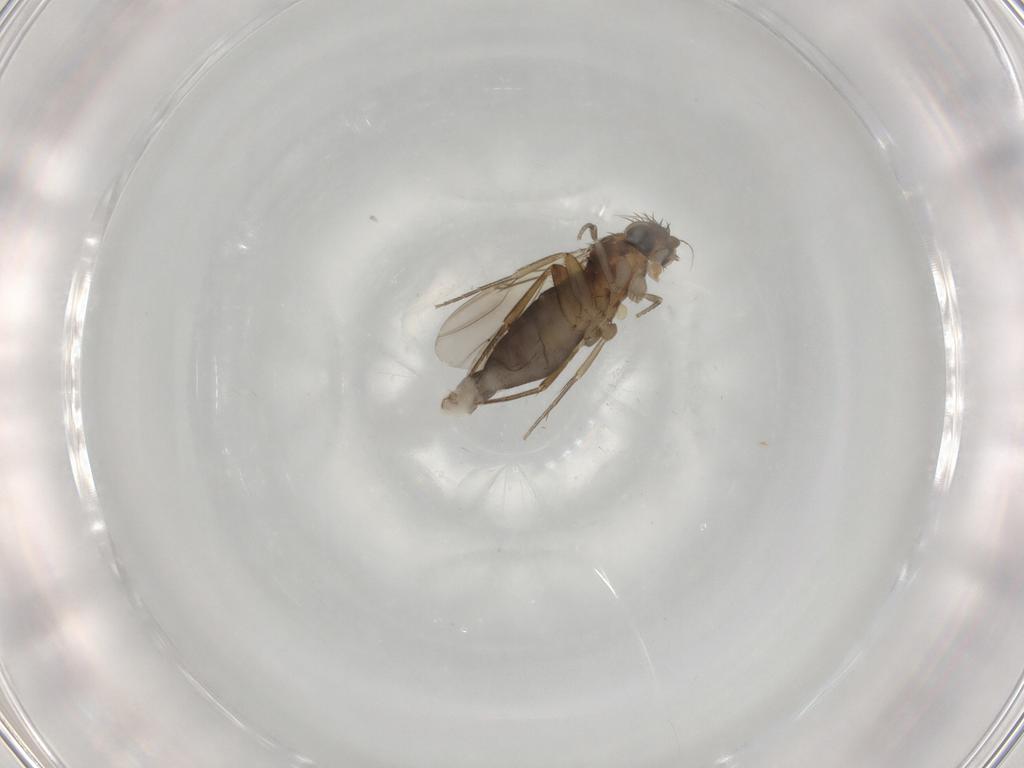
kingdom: Animalia
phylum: Arthropoda
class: Insecta
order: Diptera
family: Phoridae
